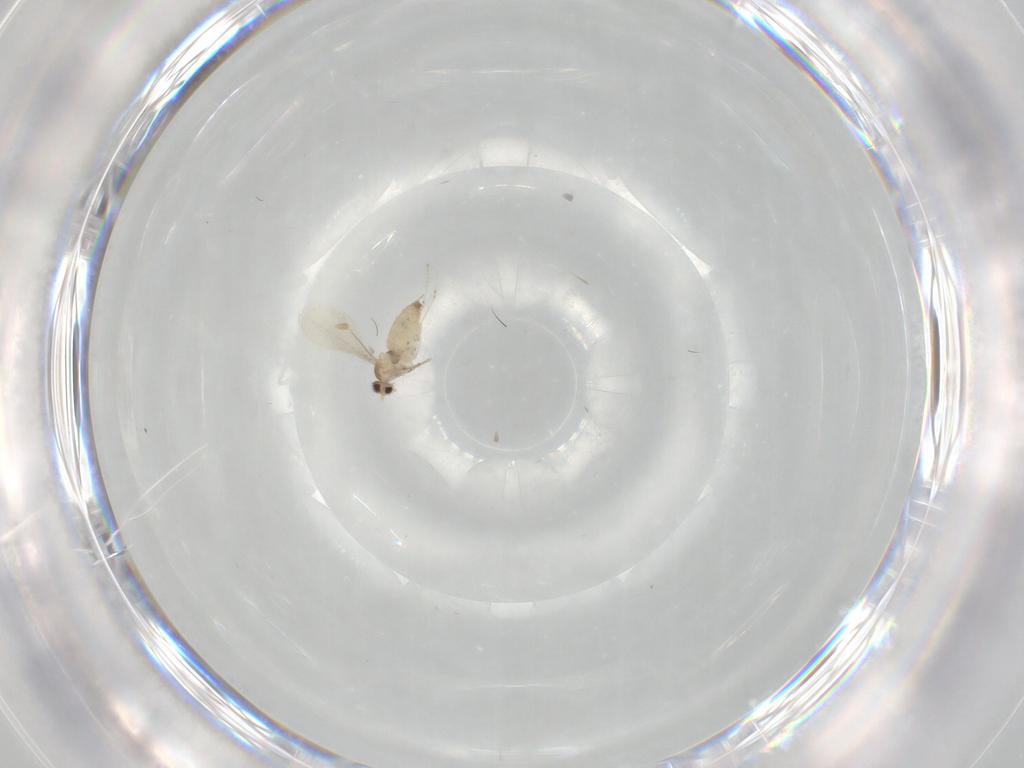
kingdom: Animalia
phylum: Arthropoda
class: Insecta
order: Diptera
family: Cecidomyiidae
